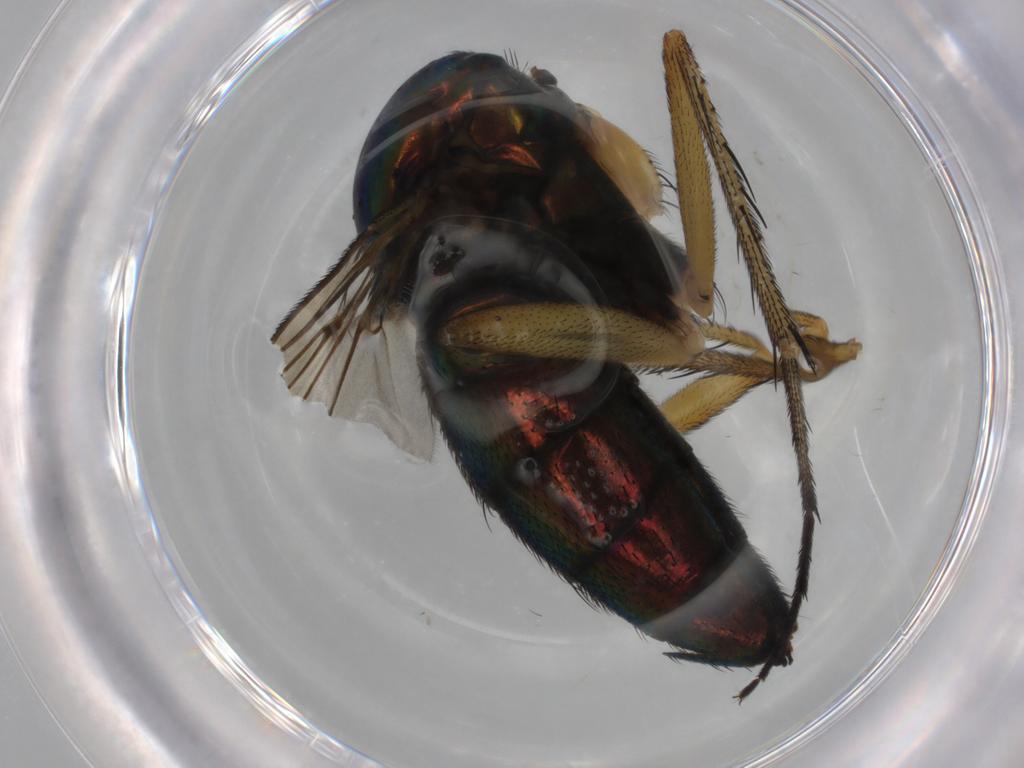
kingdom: Animalia
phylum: Arthropoda
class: Insecta
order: Diptera
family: Dolichopodidae
